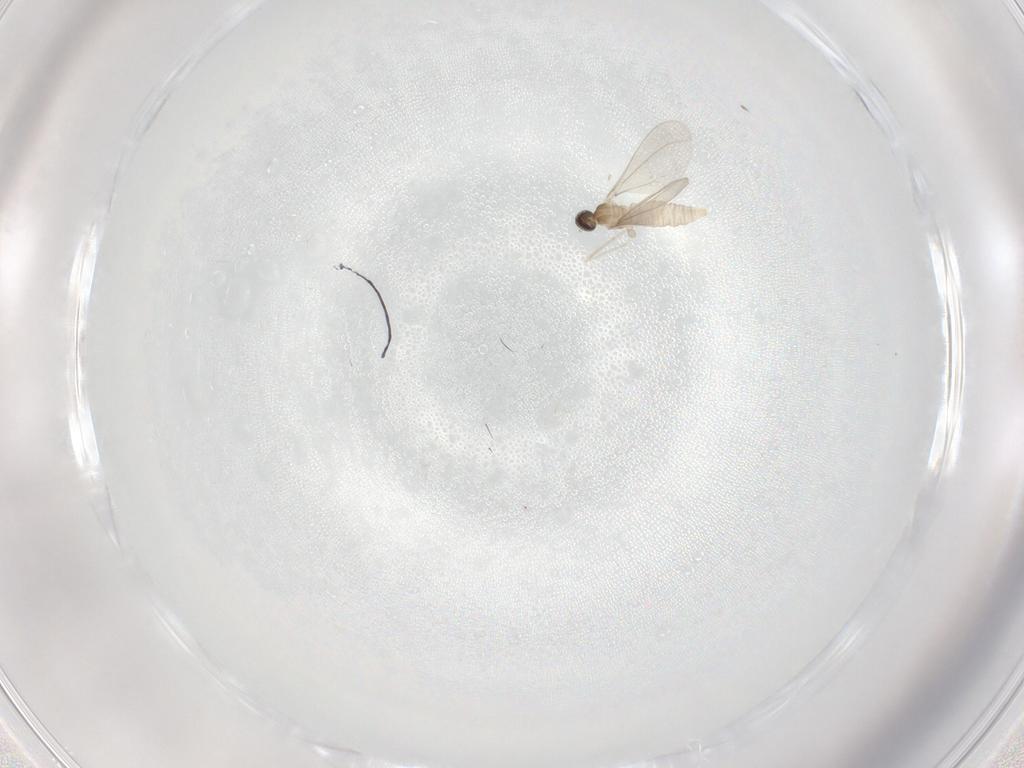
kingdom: Animalia
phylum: Arthropoda
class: Insecta
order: Diptera
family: Cecidomyiidae
